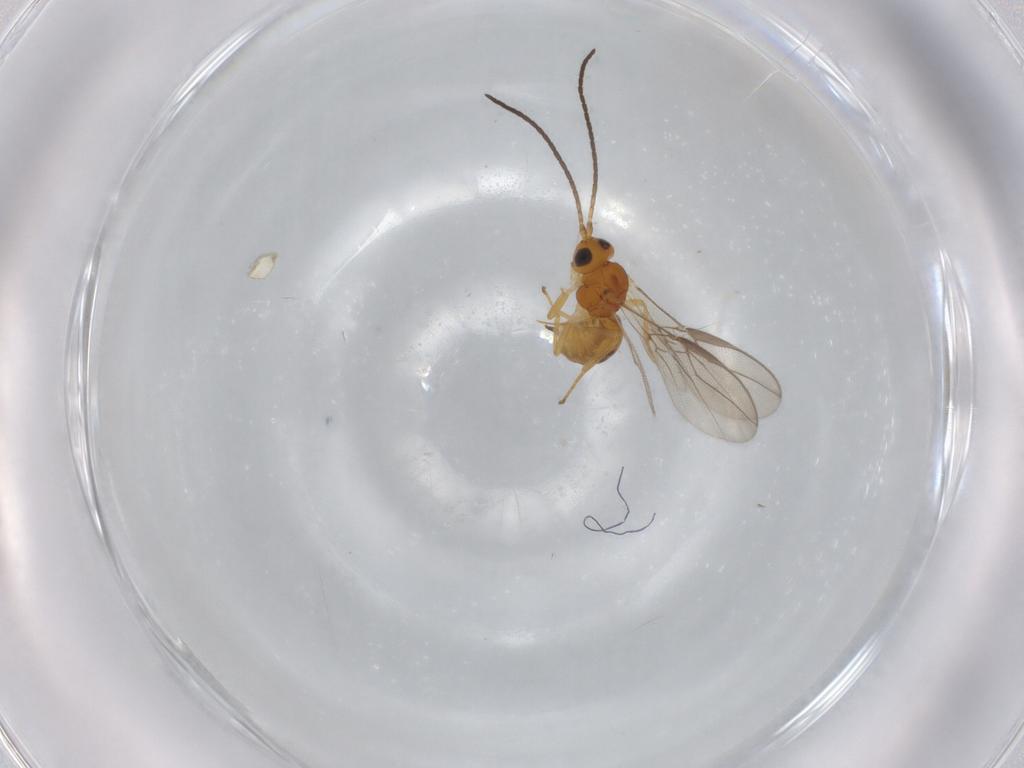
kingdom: Animalia
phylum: Arthropoda
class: Insecta
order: Hymenoptera
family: Braconidae
